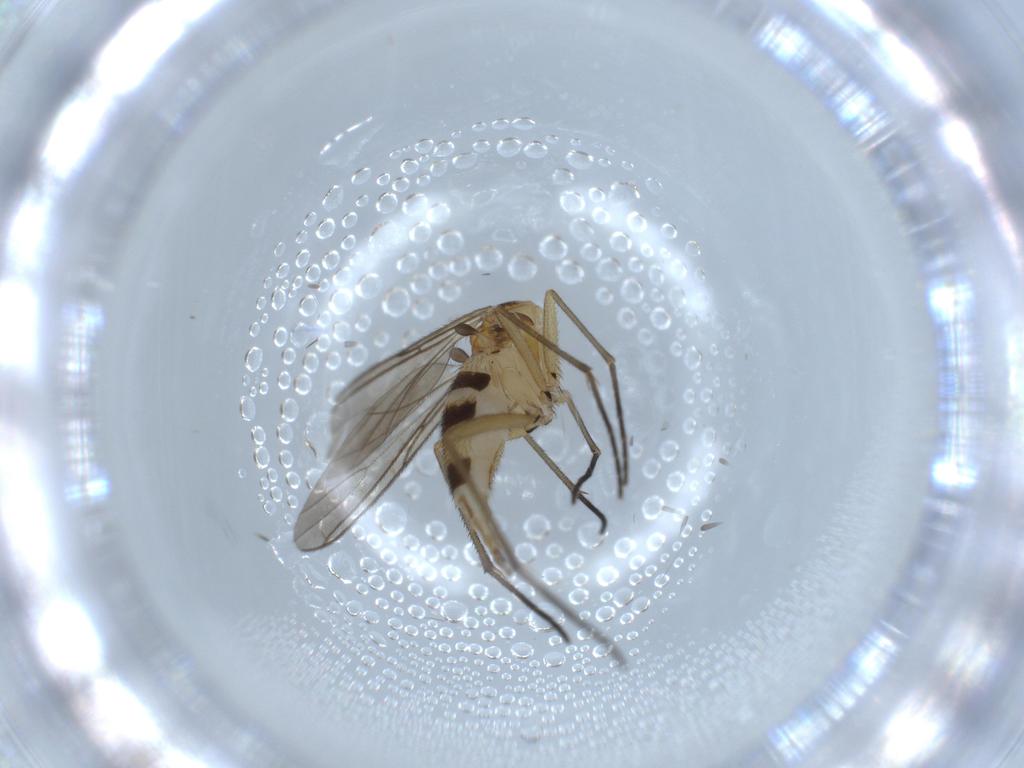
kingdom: Animalia
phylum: Arthropoda
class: Insecta
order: Diptera
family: Sciaridae
